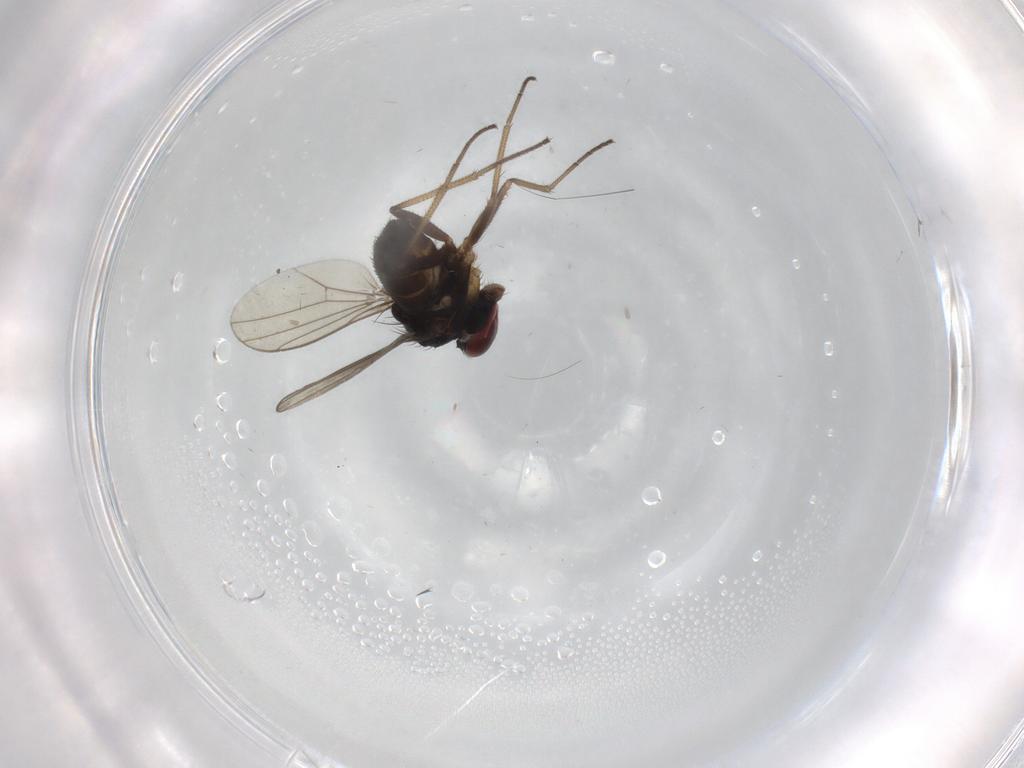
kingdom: Animalia
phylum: Arthropoda
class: Insecta
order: Diptera
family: Dolichopodidae
